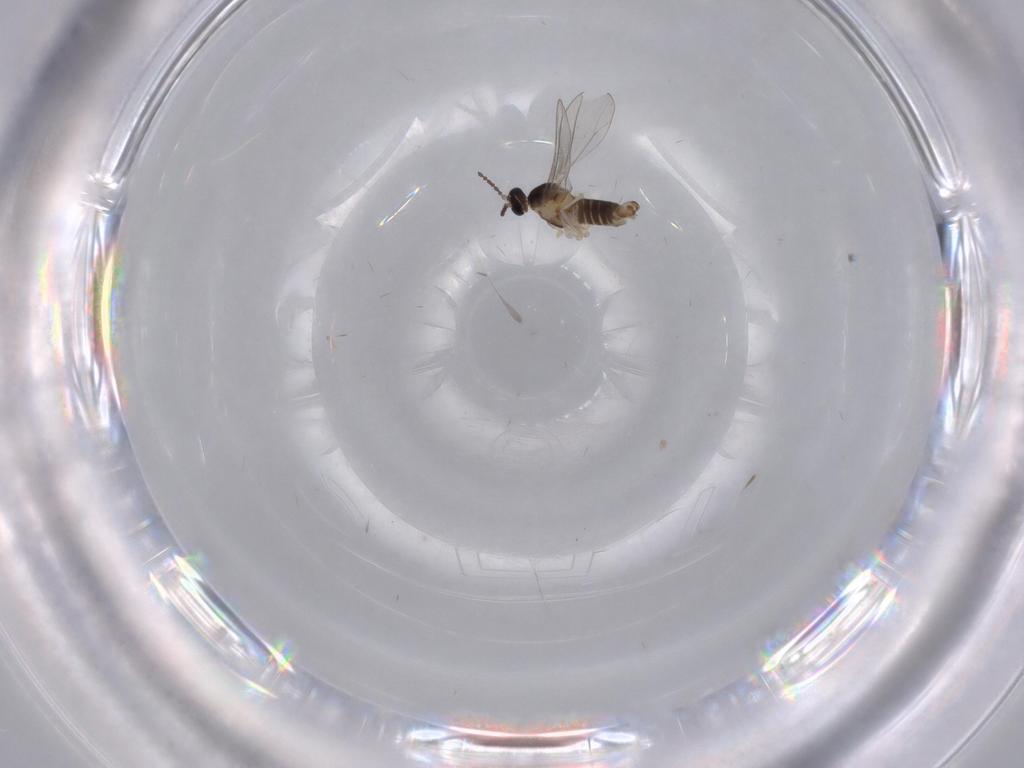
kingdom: Animalia
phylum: Arthropoda
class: Insecta
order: Diptera
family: Cecidomyiidae
